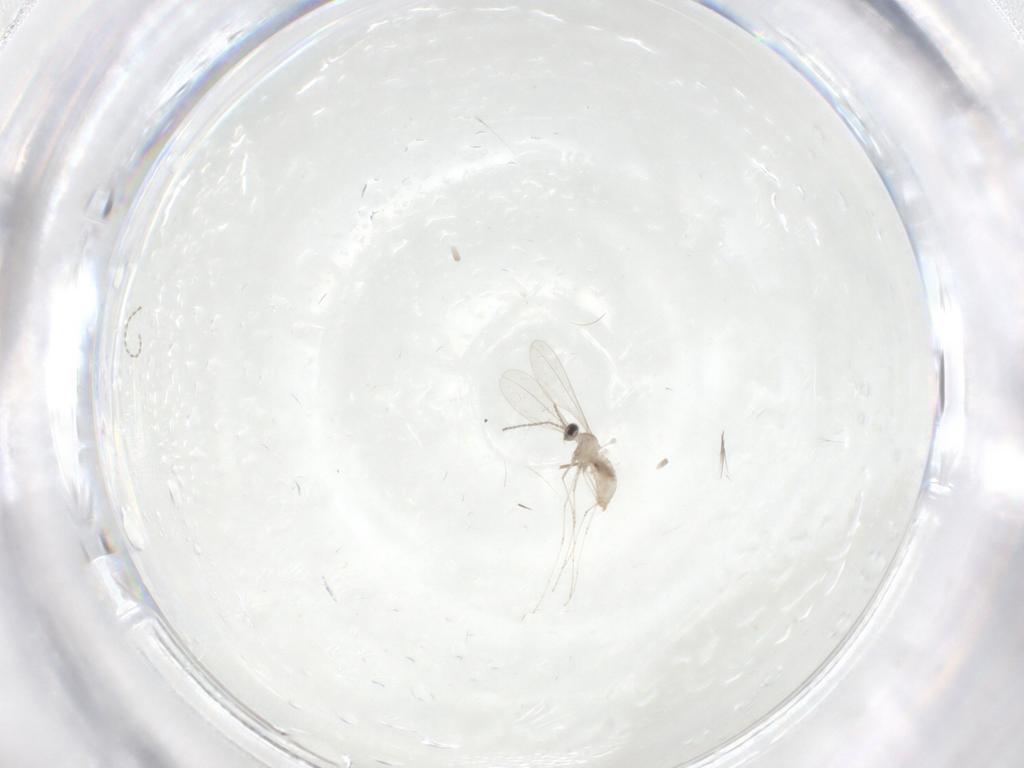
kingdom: Animalia
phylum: Arthropoda
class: Insecta
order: Diptera
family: Cecidomyiidae
